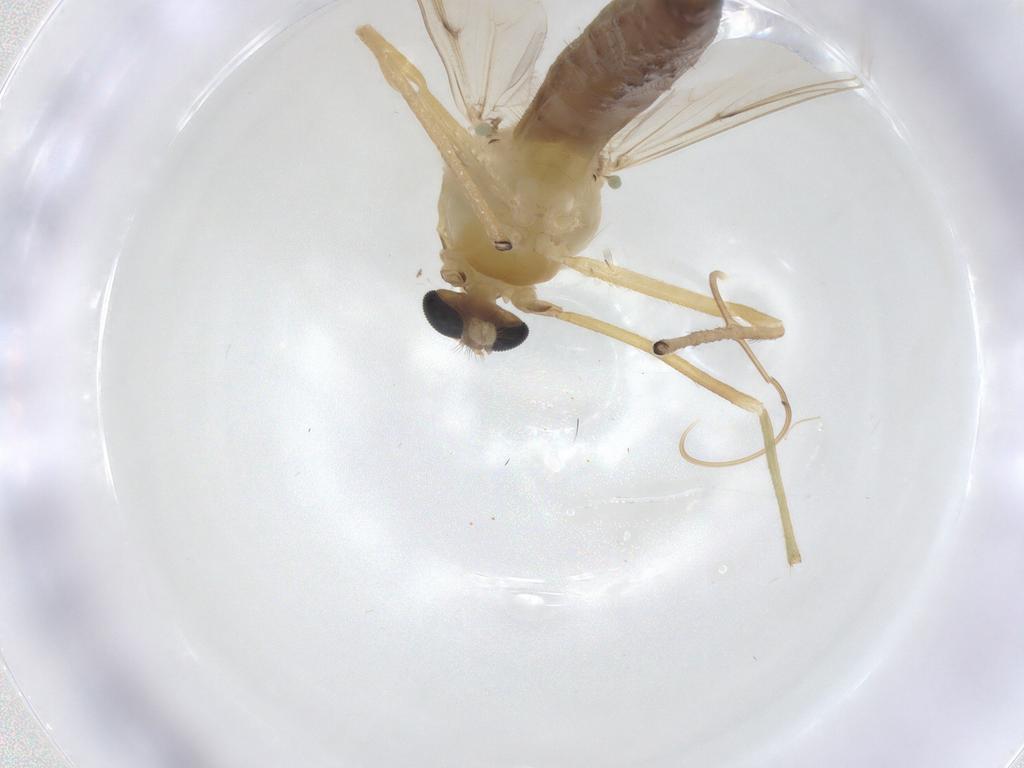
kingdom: Animalia
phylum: Arthropoda
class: Insecta
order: Diptera
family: Chironomidae
